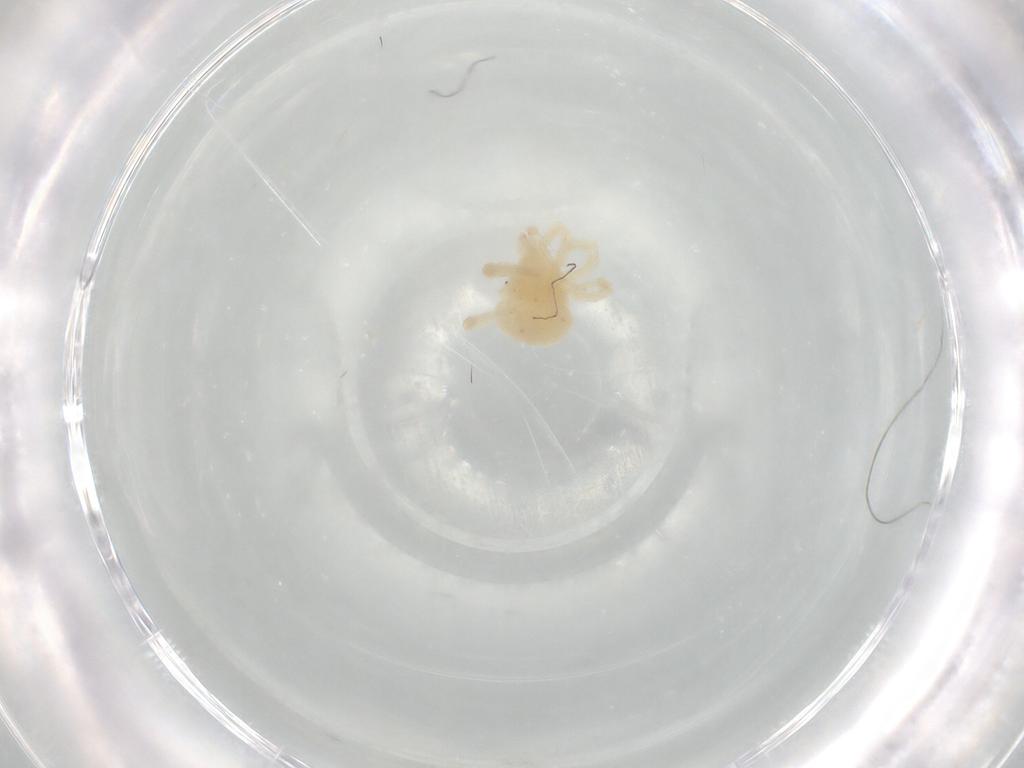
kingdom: Animalia
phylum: Arthropoda
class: Arachnida
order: Trombidiformes
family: Anystidae
